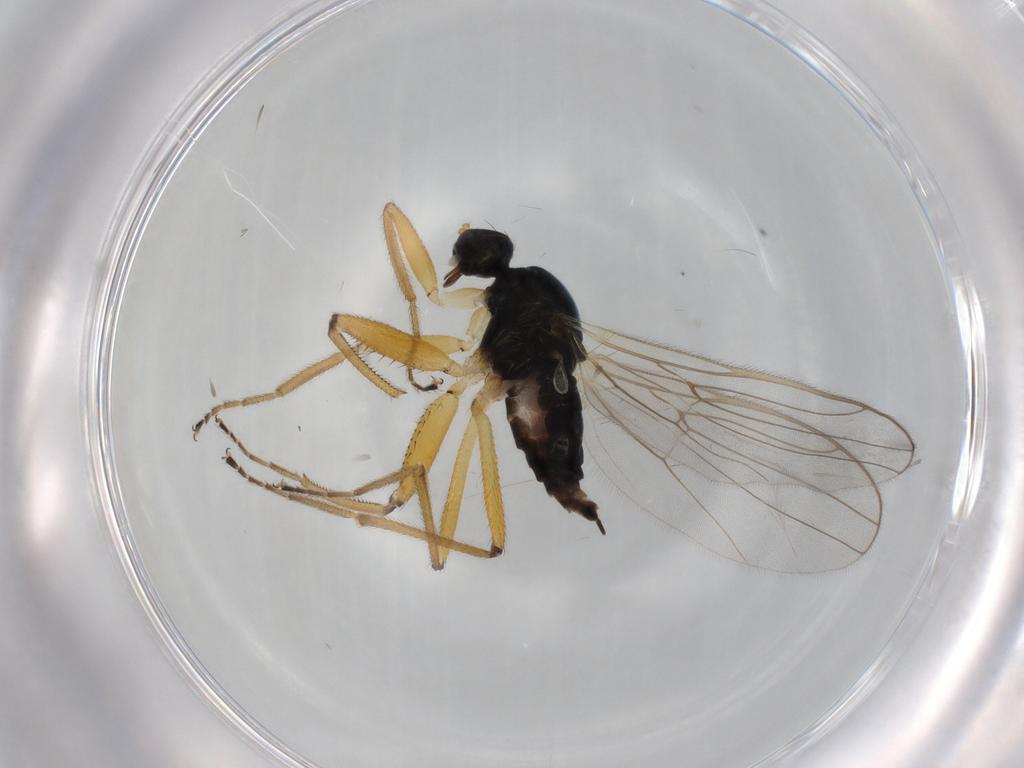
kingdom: Animalia
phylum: Arthropoda
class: Insecta
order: Diptera
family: Hybotidae
